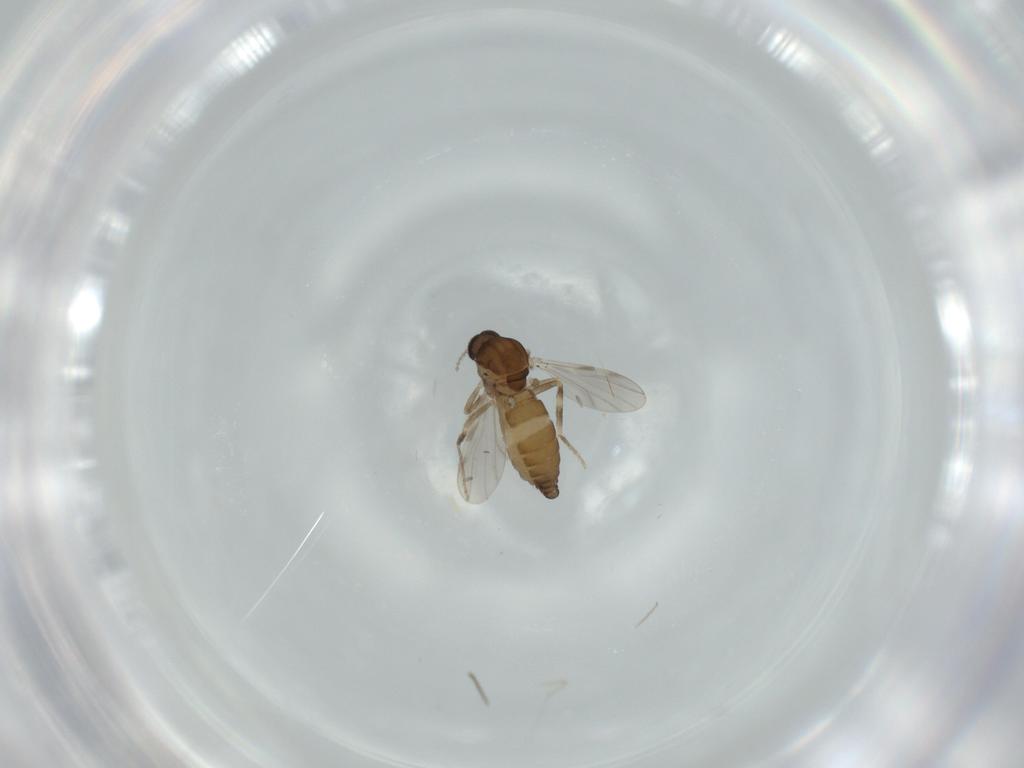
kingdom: Animalia
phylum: Arthropoda
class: Insecta
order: Diptera
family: Ceratopogonidae
